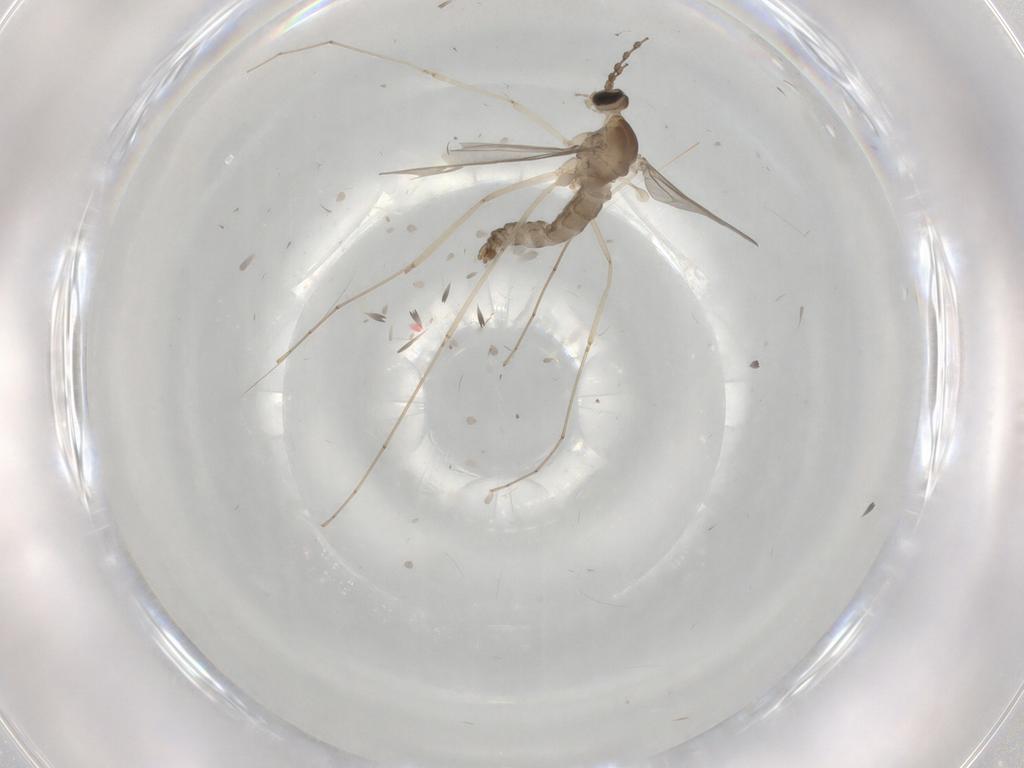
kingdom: Animalia
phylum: Arthropoda
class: Insecta
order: Diptera
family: Cecidomyiidae
